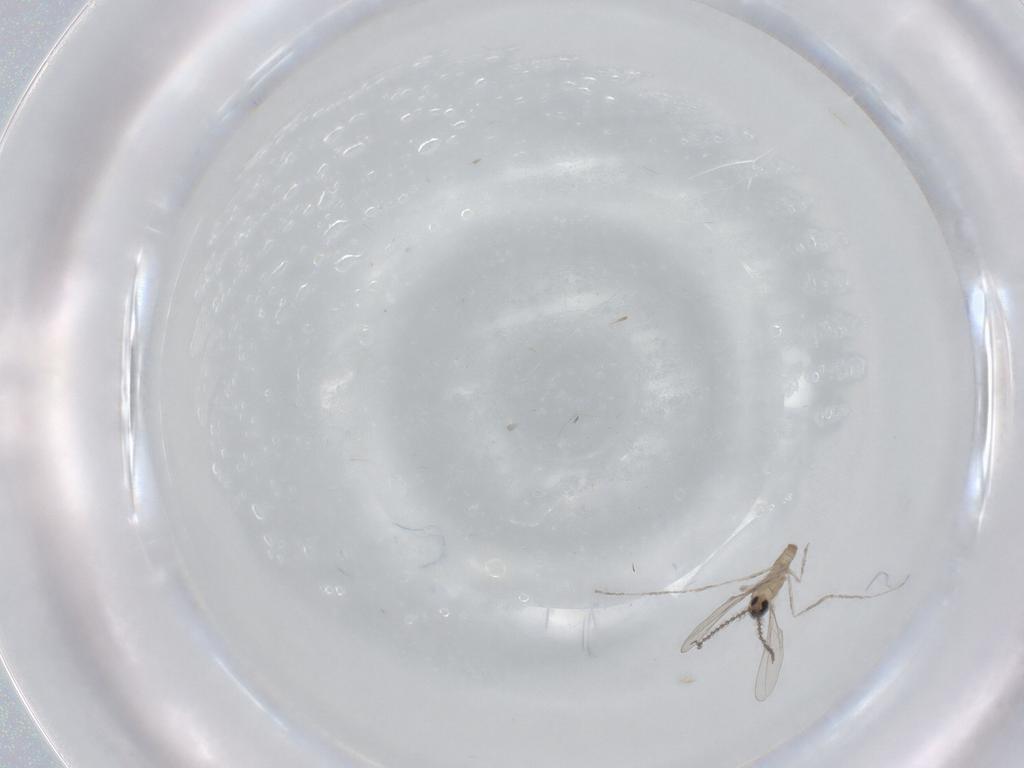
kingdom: Animalia
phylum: Arthropoda
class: Insecta
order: Diptera
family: Cecidomyiidae
